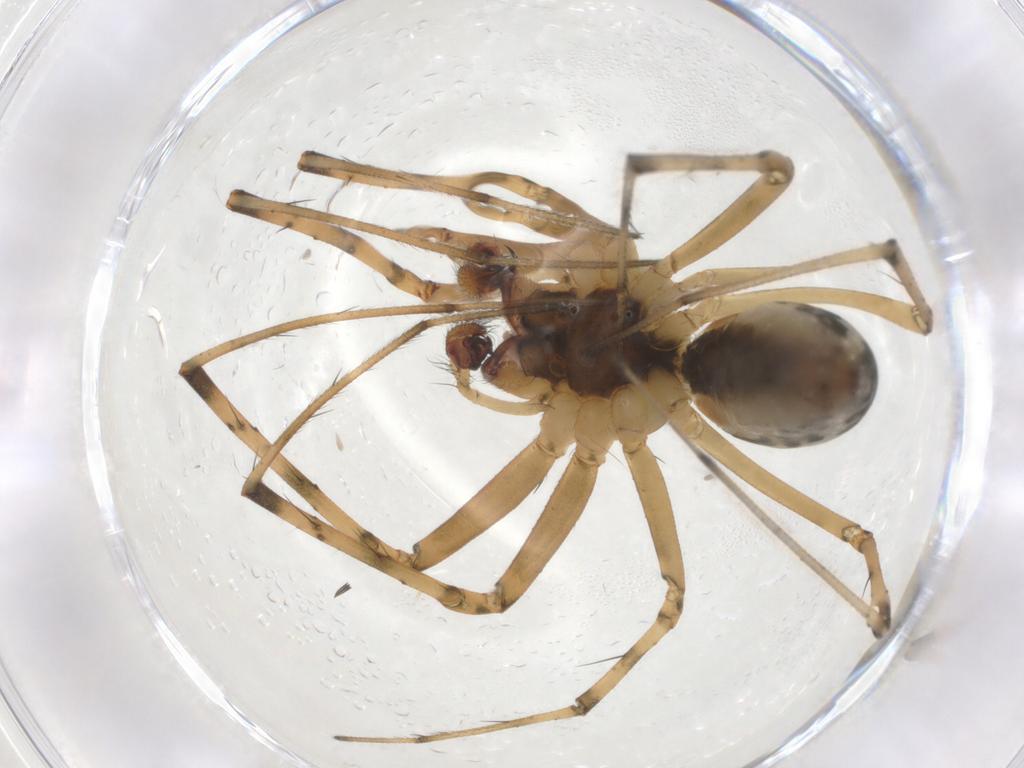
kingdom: Animalia
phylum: Arthropoda
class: Arachnida
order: Araneae
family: Linyphiidae
